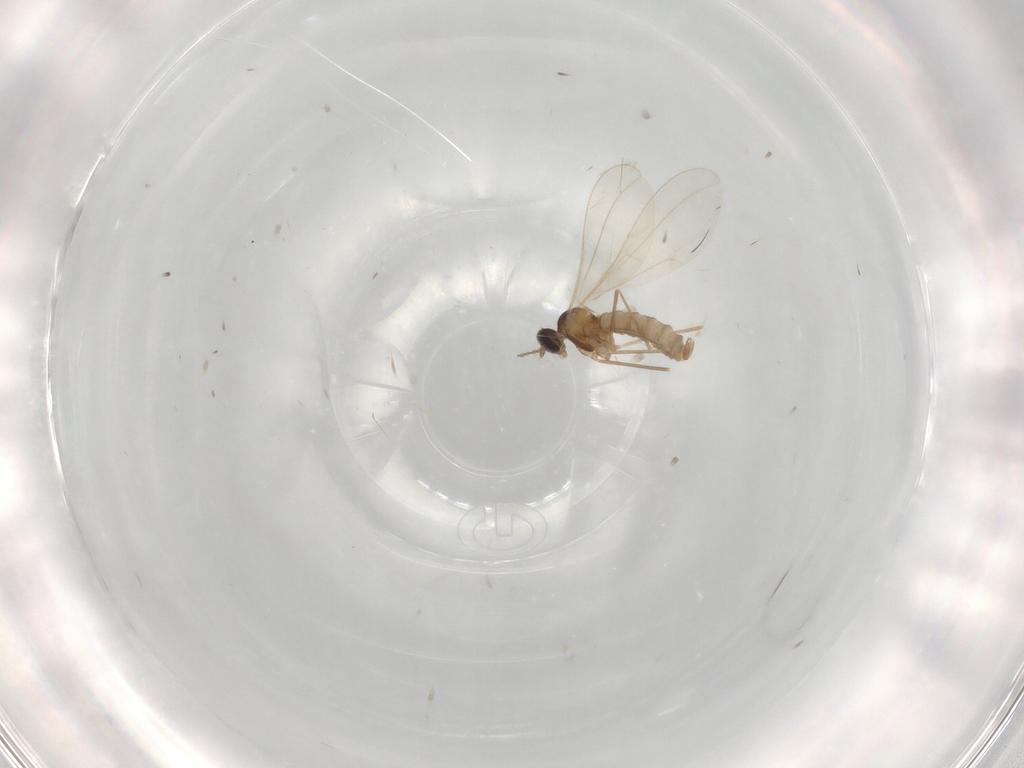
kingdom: Animalia
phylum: Arthropoda
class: Insecta
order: Diptera
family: Cecidomyiidae
